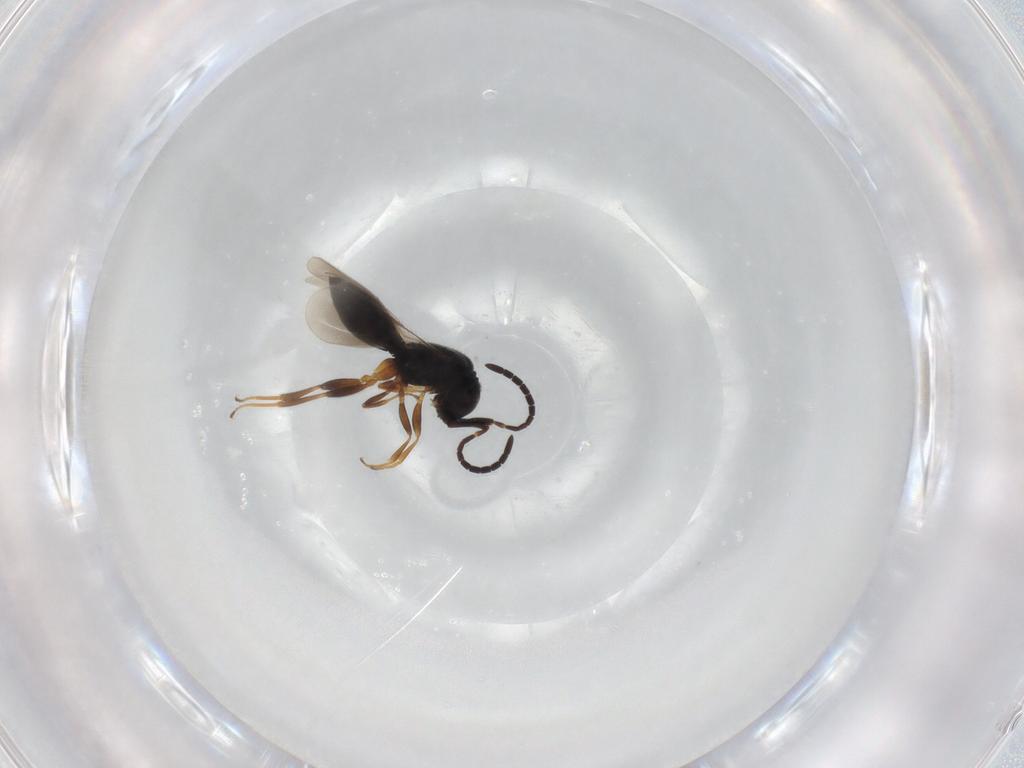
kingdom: Animalia
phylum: Arthropoda
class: Insecta
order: Hymenoptera
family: Megaspilidae
